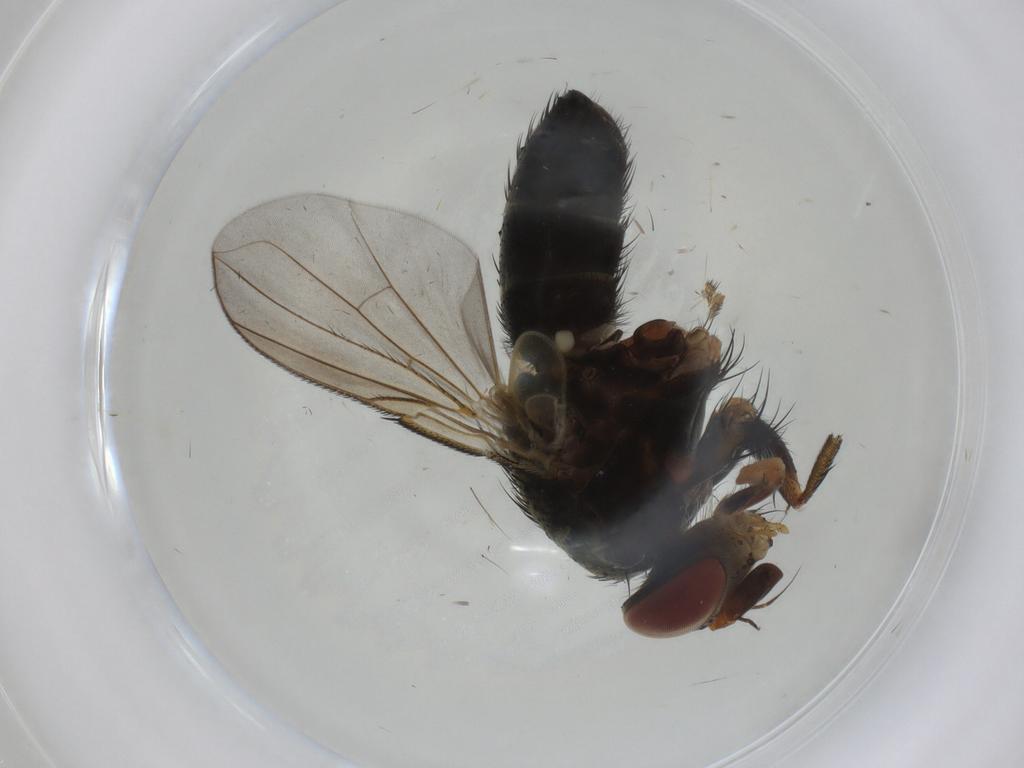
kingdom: Animalia
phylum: Arthropoda
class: Insecta
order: Diptera
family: Tachinidae
